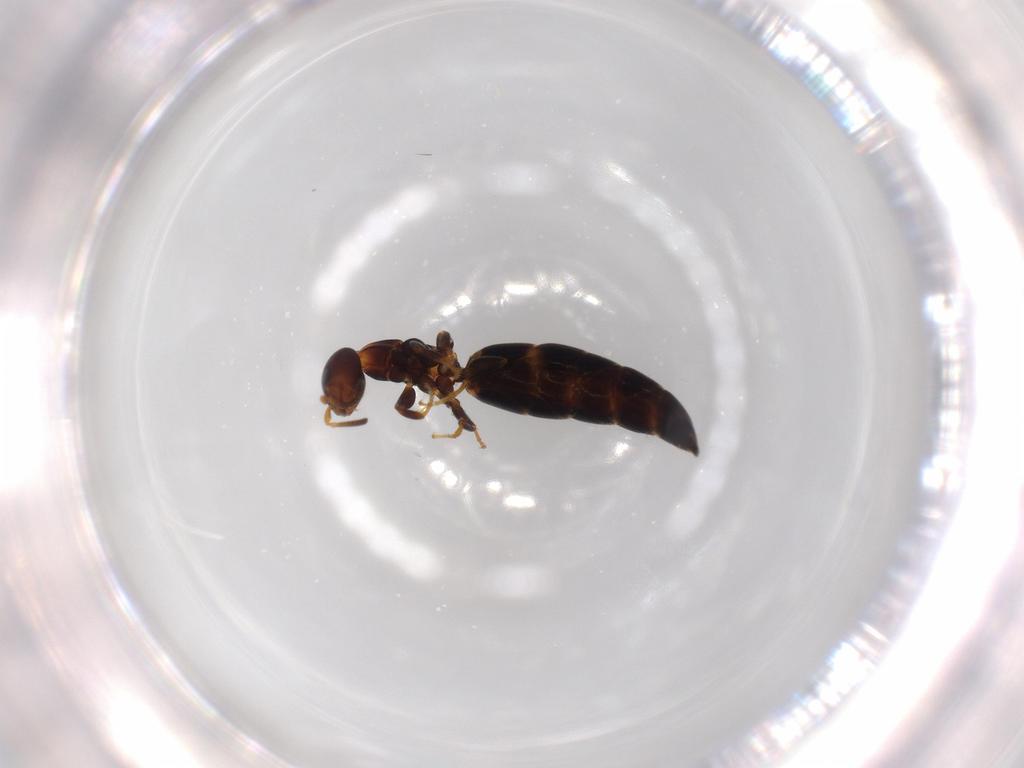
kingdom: Animalia
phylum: Arthropoda
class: Insecta
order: Hymenoptera
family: Bethylidae
